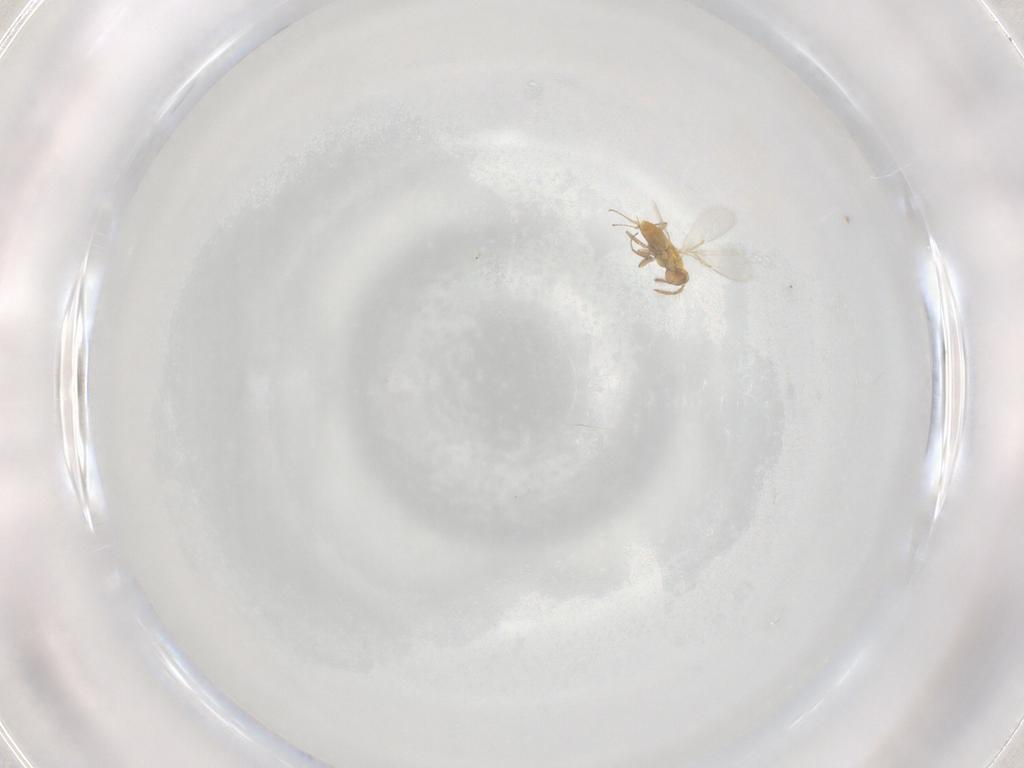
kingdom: Animalia
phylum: Arthropoda
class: Insecta
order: Hymenoptera
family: Aphelinidae
